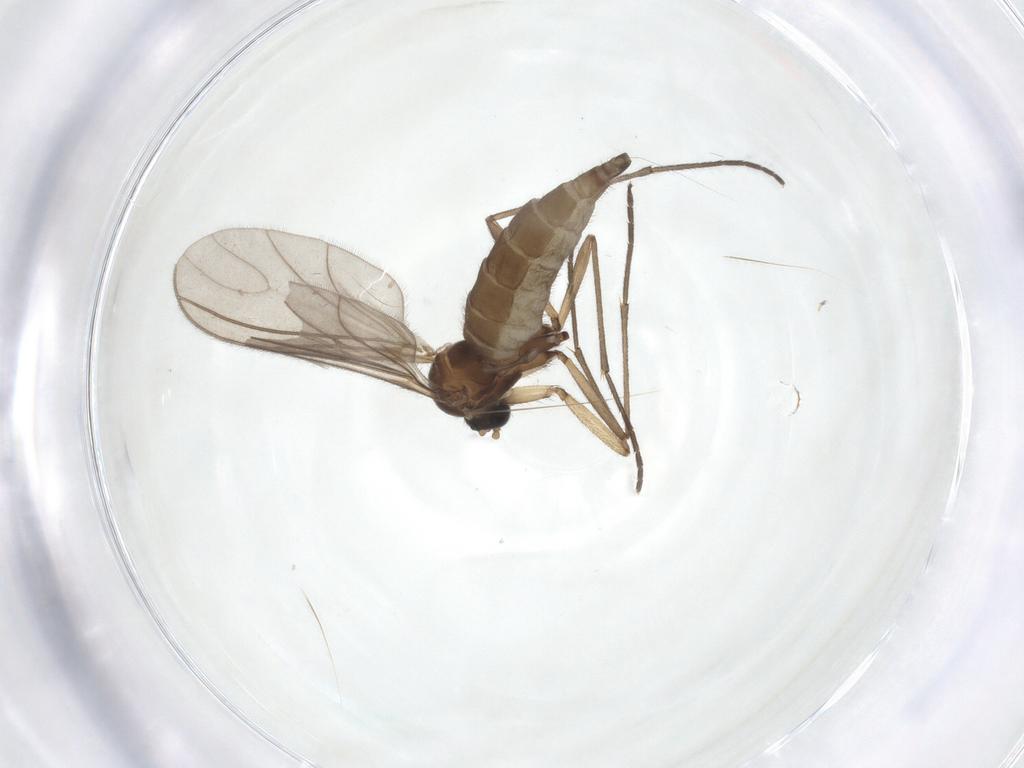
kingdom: Animalia
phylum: Arthropoda
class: Insecta
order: Diptera
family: Sciaridae
